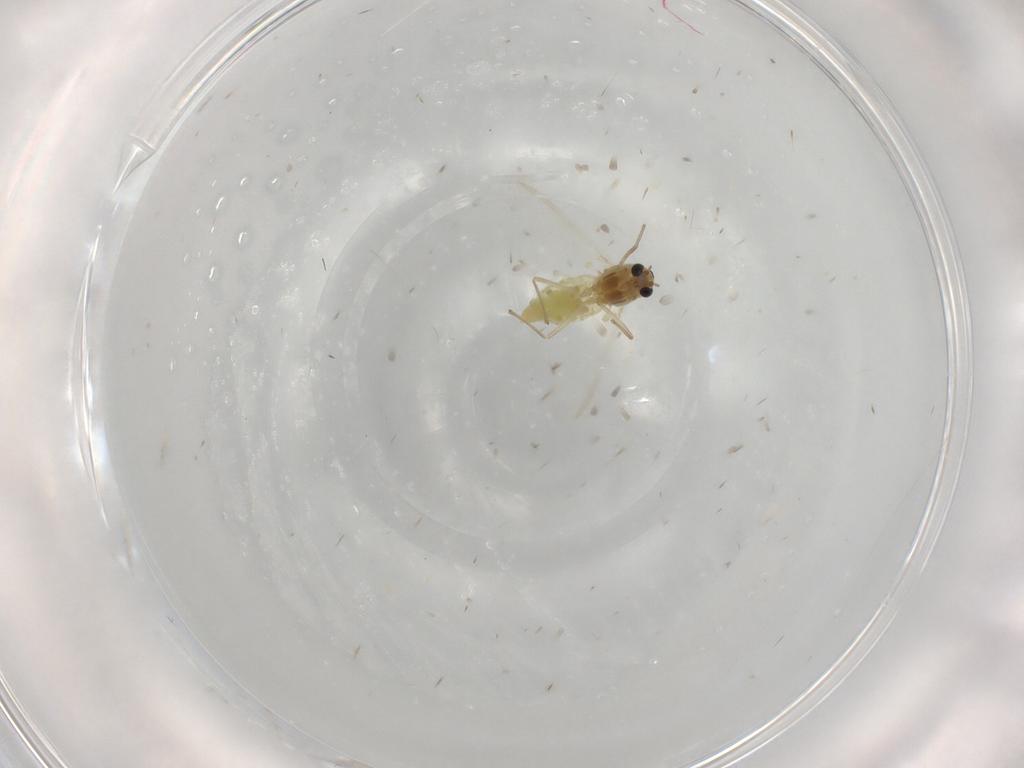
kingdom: Animalia
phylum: Arthropoda
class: Insecta
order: Diptera
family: Chironomidae
